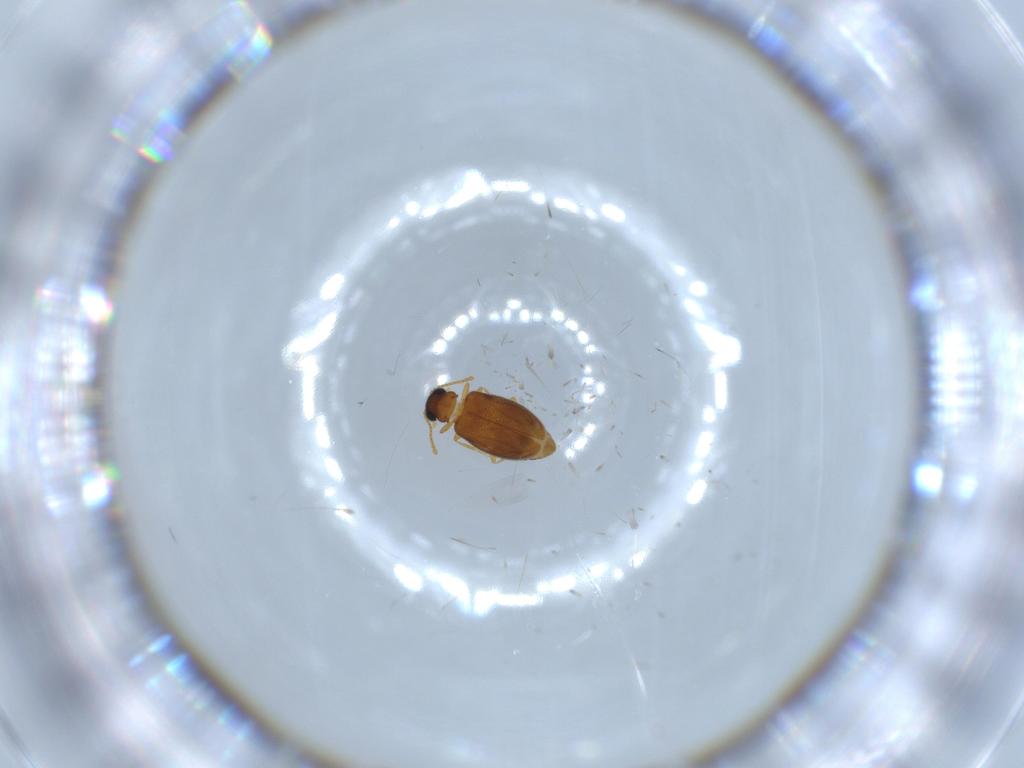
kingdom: Animalia
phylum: Arthropoda
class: Insecta
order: Coleoptera
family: Aderidae
